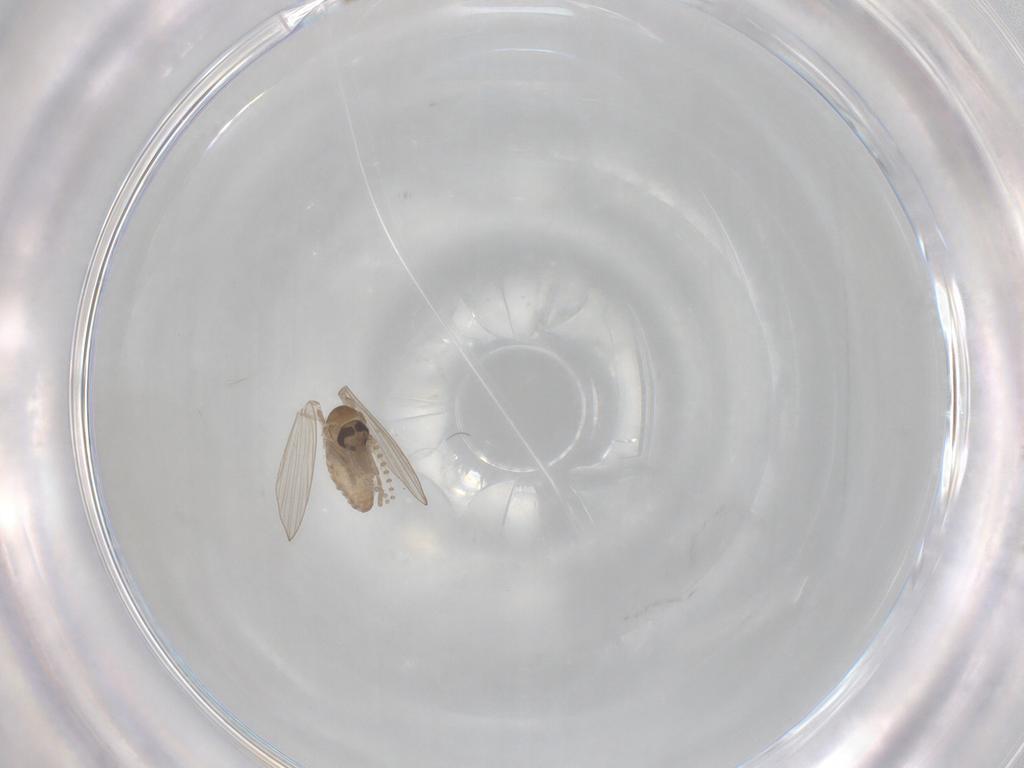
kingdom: Animalia
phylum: Arthropoda
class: Insecta
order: Diptera
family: Keroplatidae
